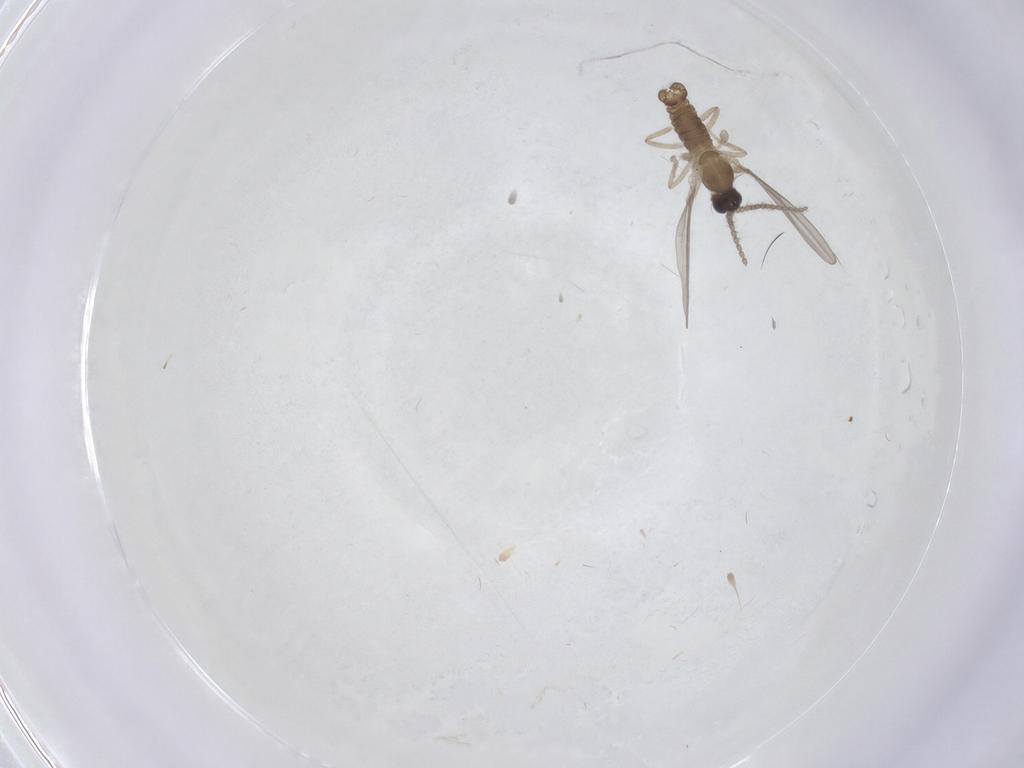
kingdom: Animalia
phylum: Arthropoda
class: Insecta
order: Diptera
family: Cecidomyiidae
